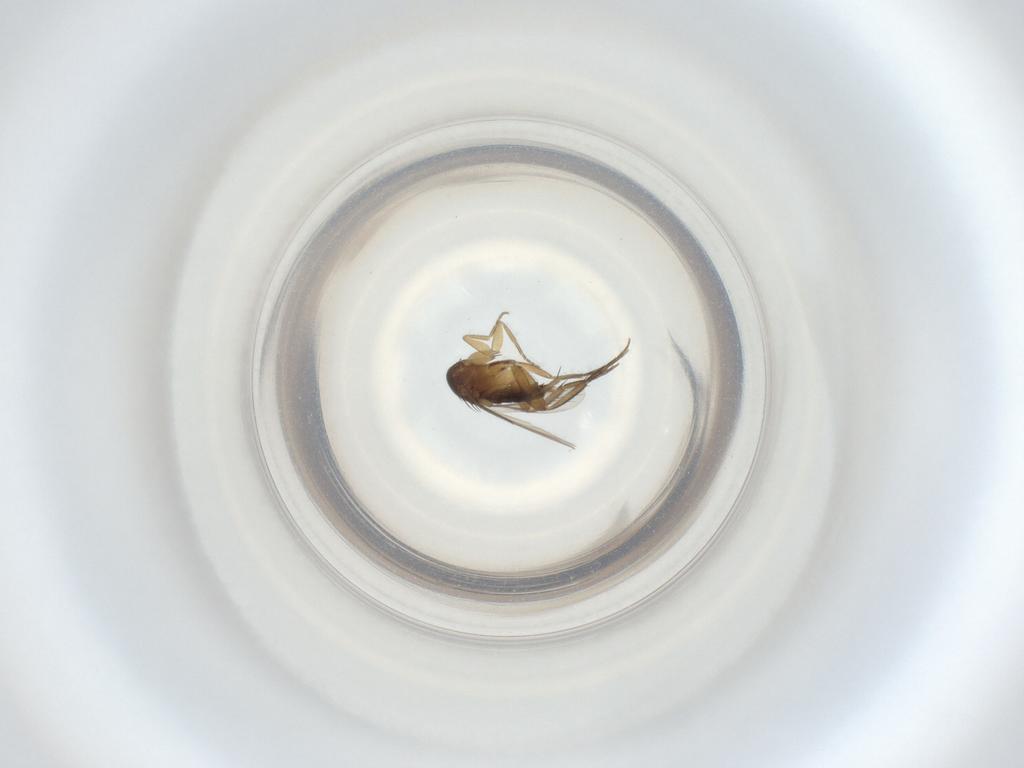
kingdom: Animalia
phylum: Arthropoda
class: Insecta
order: Diptera
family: Phoridae
